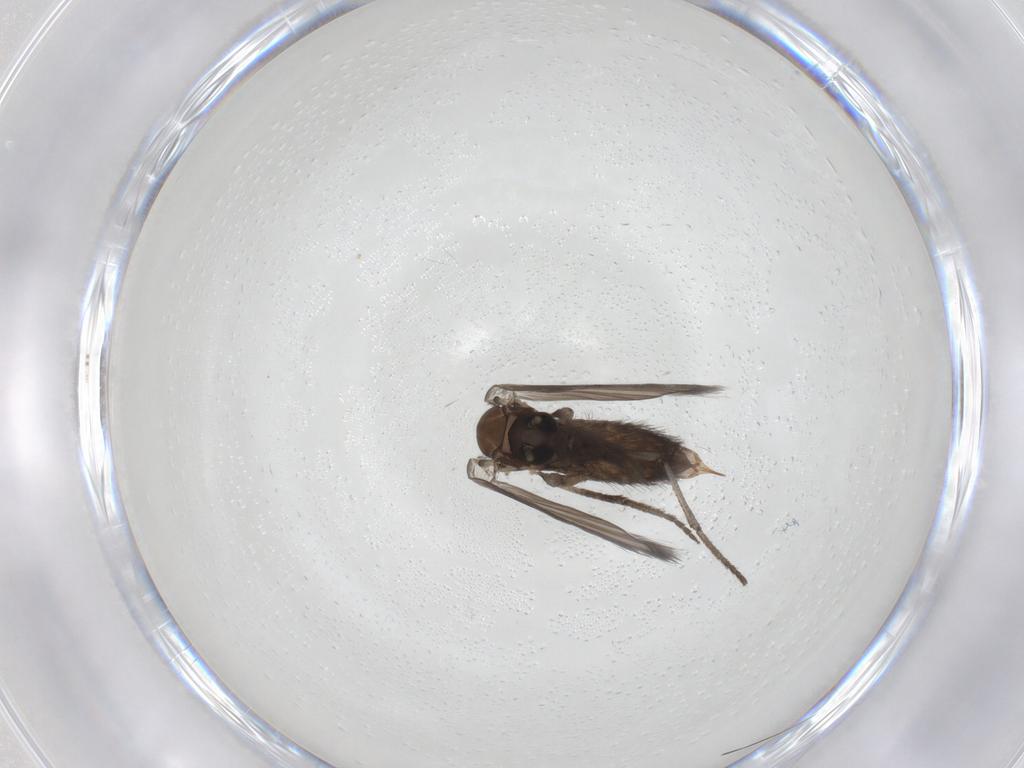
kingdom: Animalia
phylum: Arthropoda
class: Insecta
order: Diptera
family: Psychodidae
